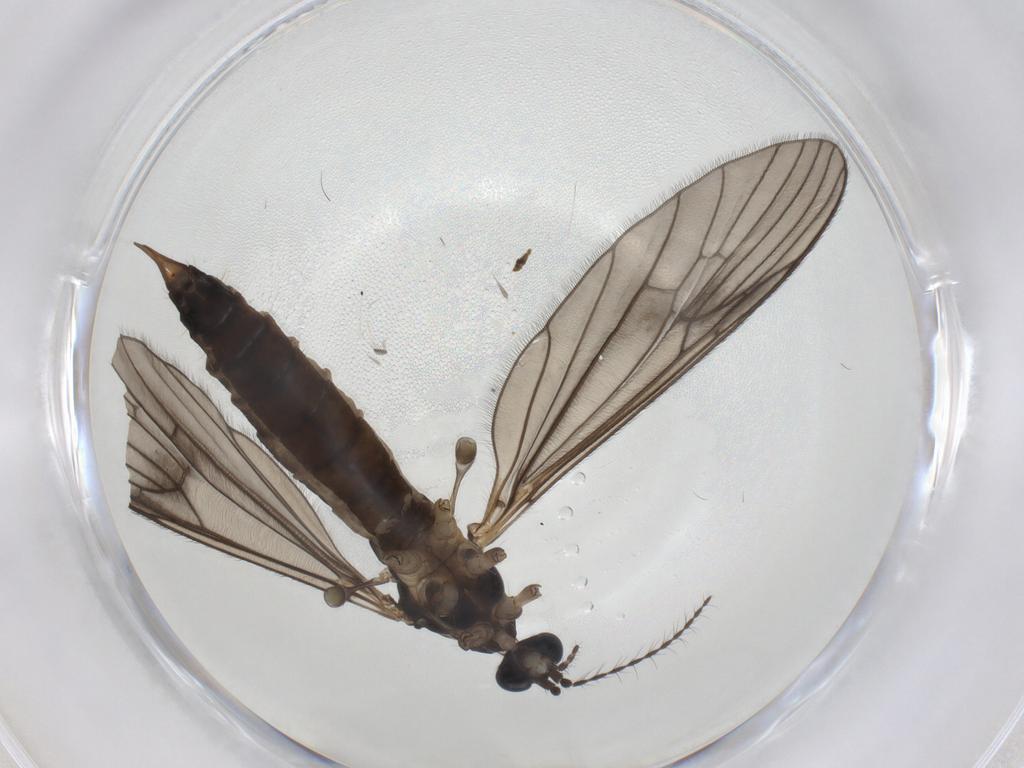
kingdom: Animalia
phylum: Arthropoda
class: Insecta
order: Diptera
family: Limoniidae
